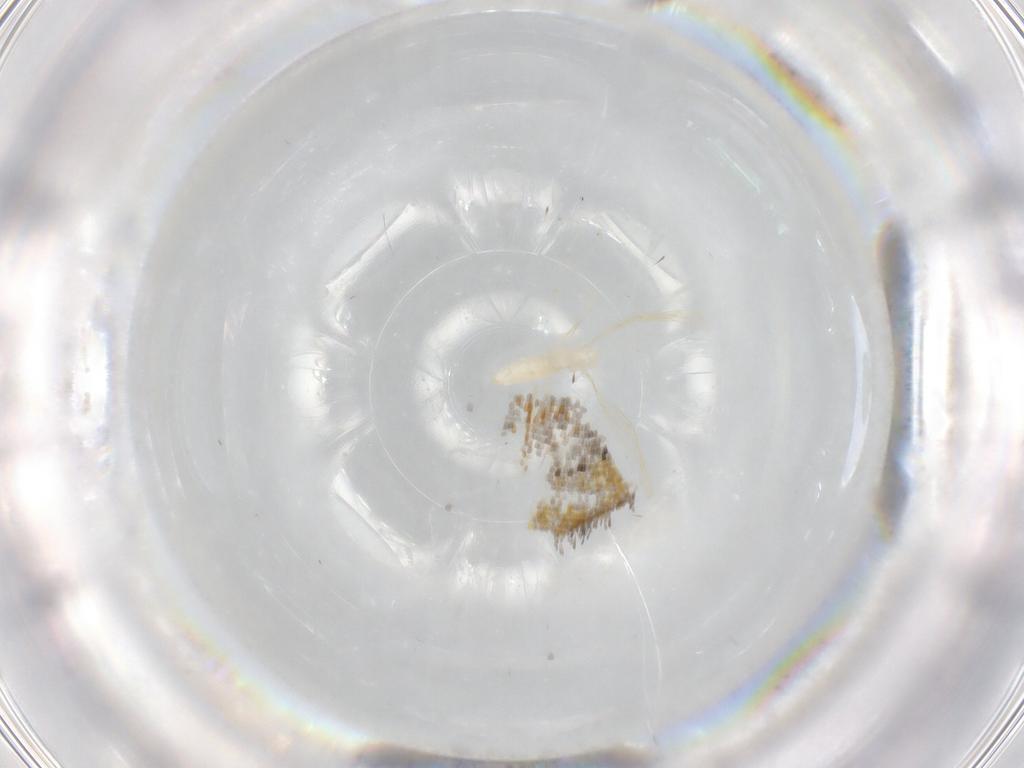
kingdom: Animalia
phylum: Arthropoda
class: Insecta
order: Diptera
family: Cecidomyiidae
